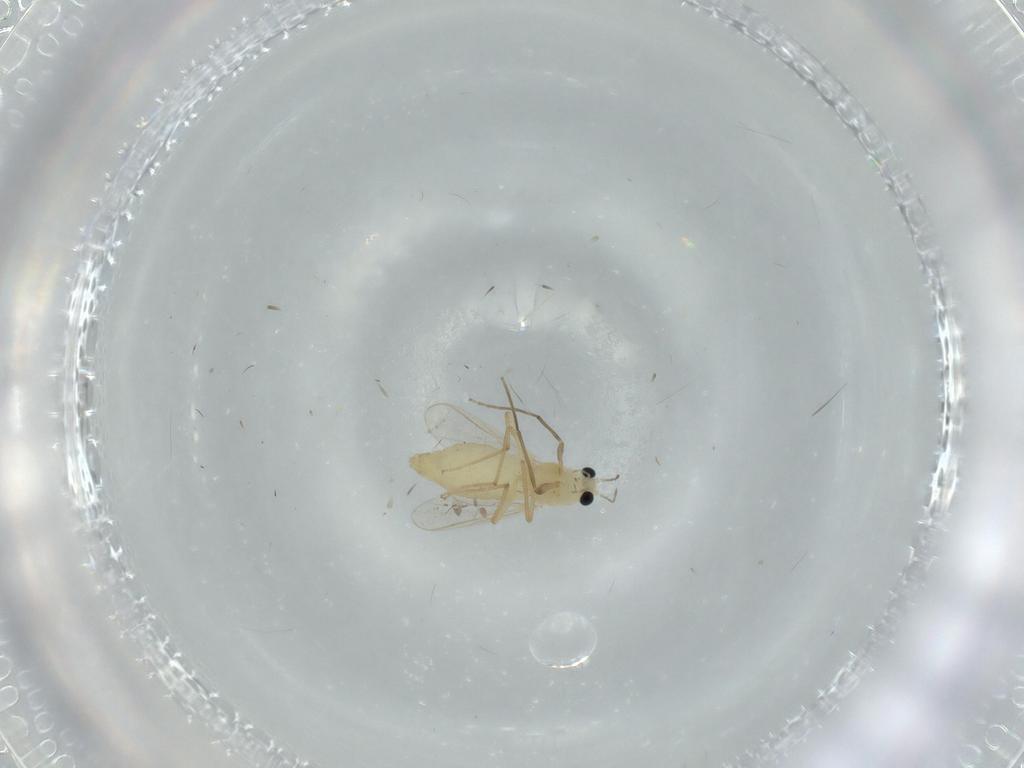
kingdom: Animalia
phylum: Arthropoda
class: Insecta
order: Diptera
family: Chironomidae
